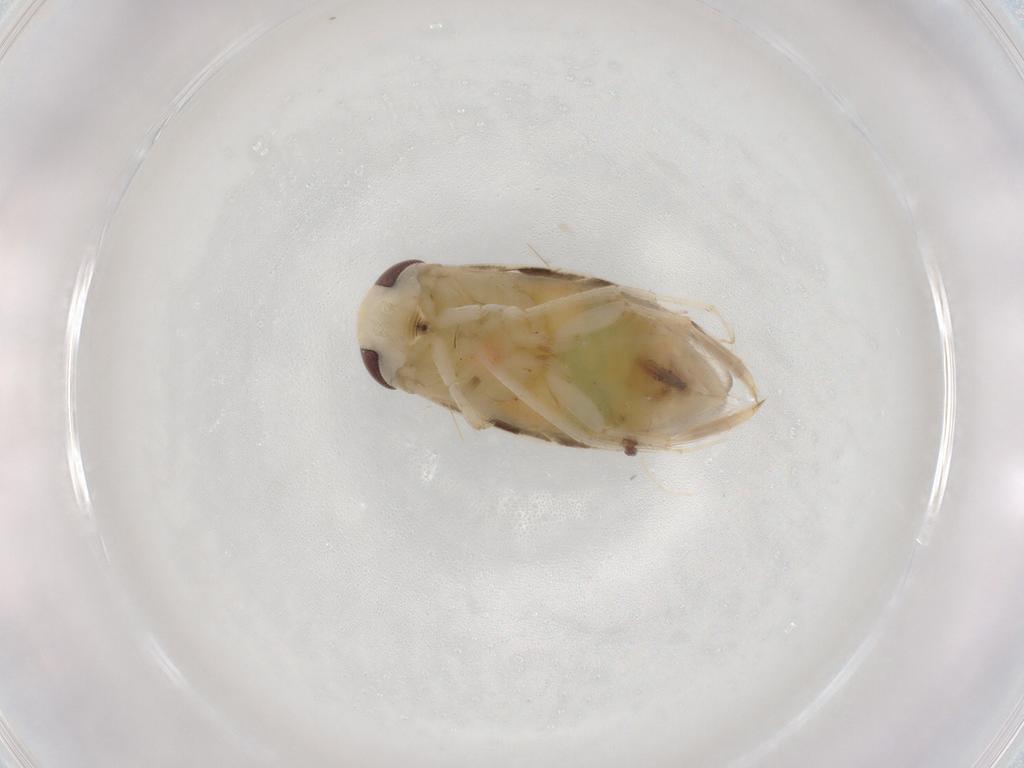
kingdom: Animalia
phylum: Arthropoda
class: Insecta
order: Hemiptera
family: Corixidae
